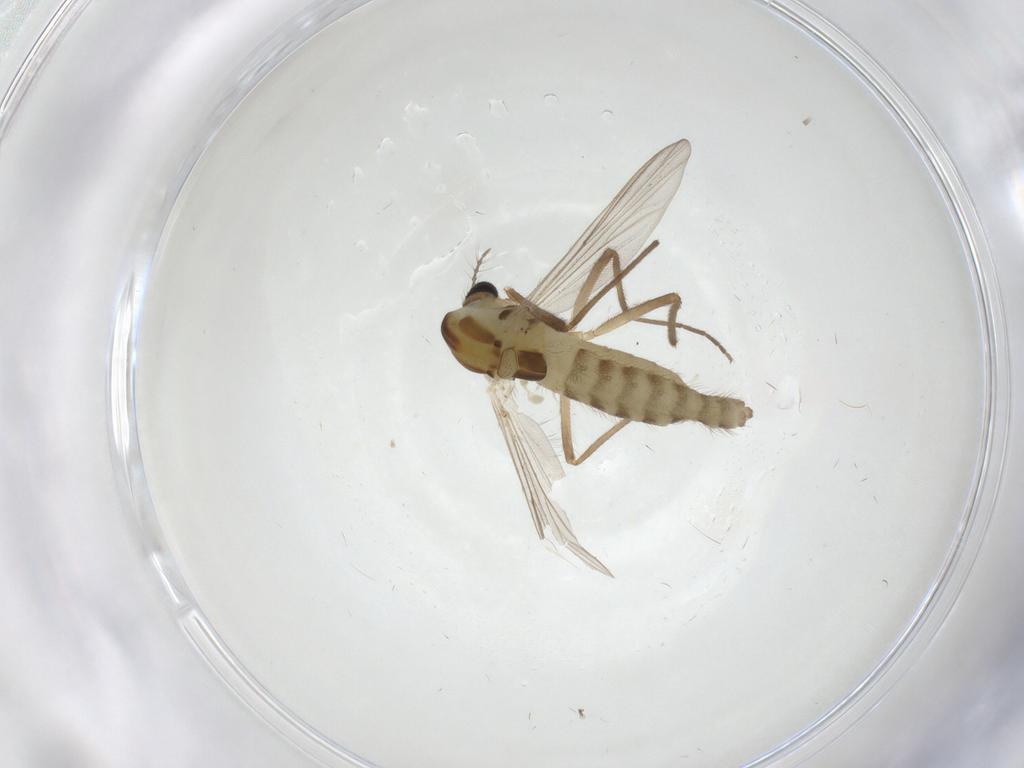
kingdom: Animalia
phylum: Arthropoda
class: Insecta
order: Diptera
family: Chironomidae
